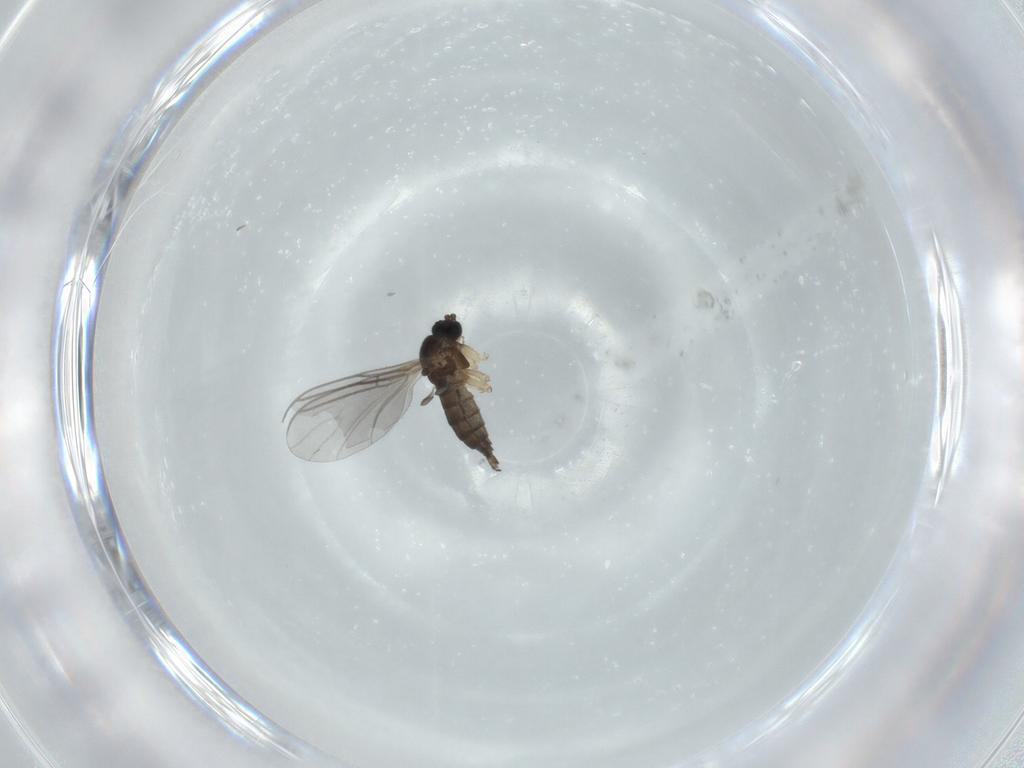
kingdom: Animalia
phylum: Arthropoda
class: Insecta
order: Diptera
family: Sciaridae
